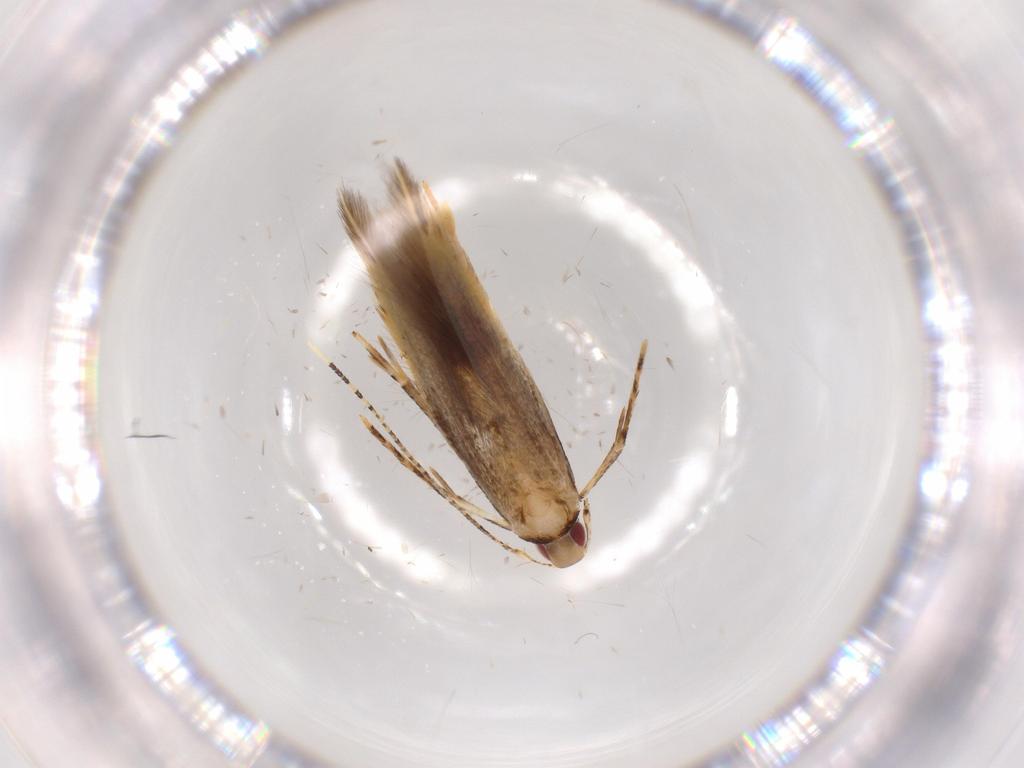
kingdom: Animalia
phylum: Arthropoda
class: Insecta
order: Lepidoptera
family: Cosmopterigidae
